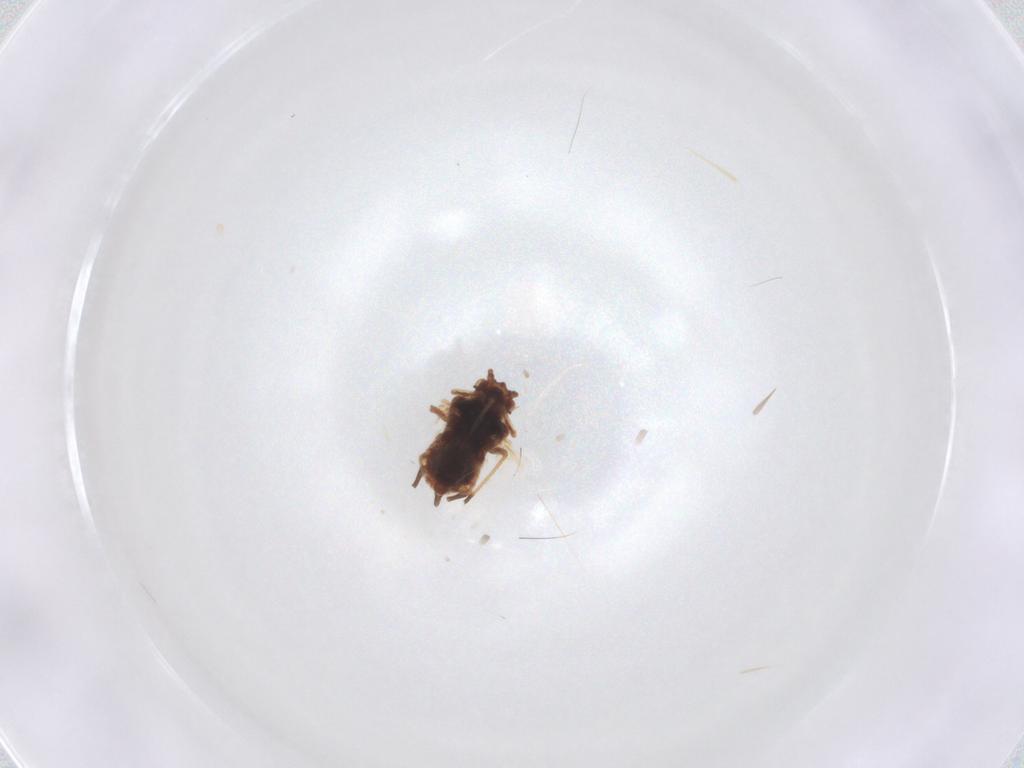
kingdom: Animalia
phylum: Arthropoda
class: Insecta
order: Hemiptera
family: Aphididae
